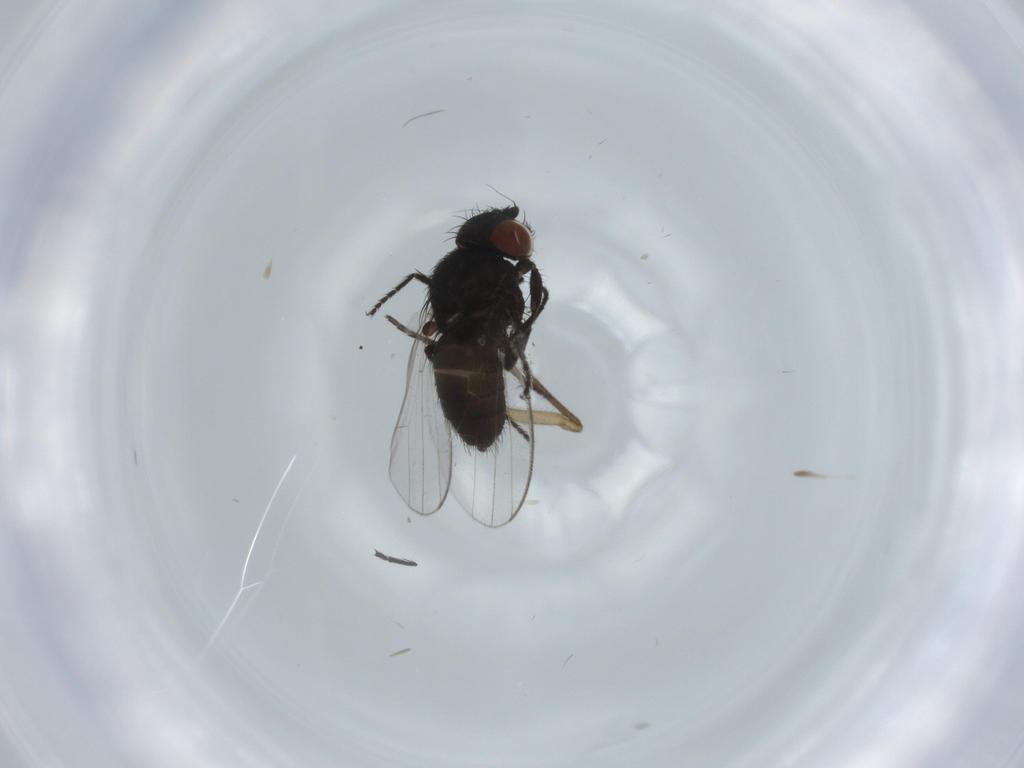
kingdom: Animalia
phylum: Arthropoda
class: Insecta
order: Diptera
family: Milichiidae
